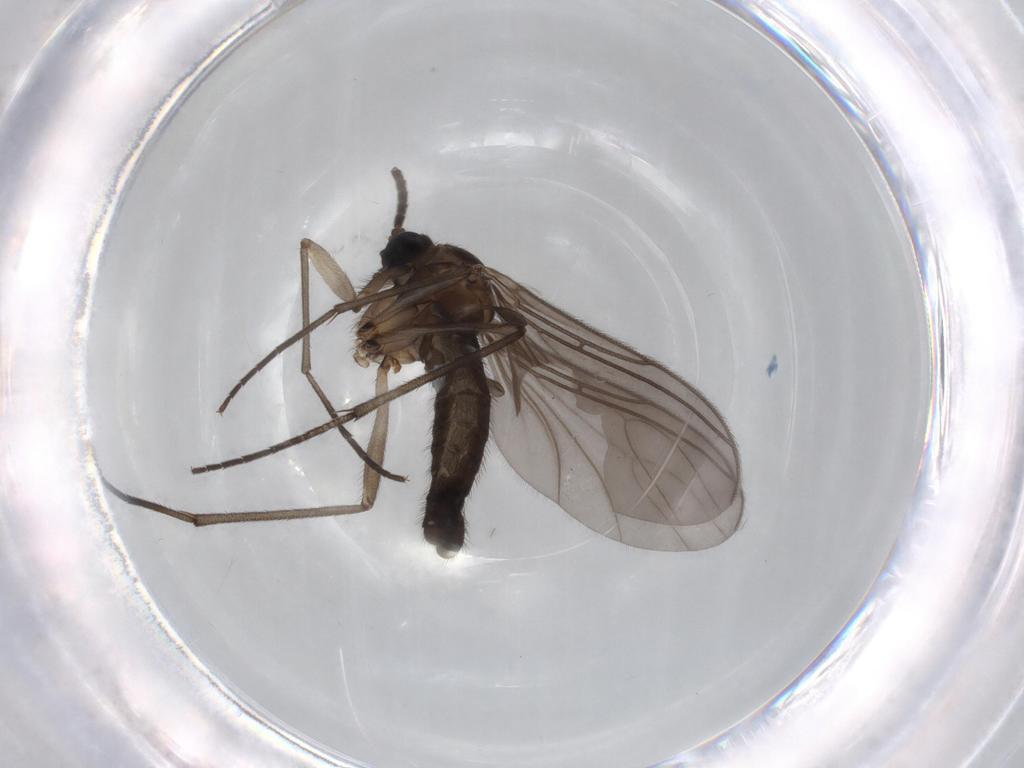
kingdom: Animalia
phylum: Arthropoda
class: Insecta
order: Diptera
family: Sciaridae
